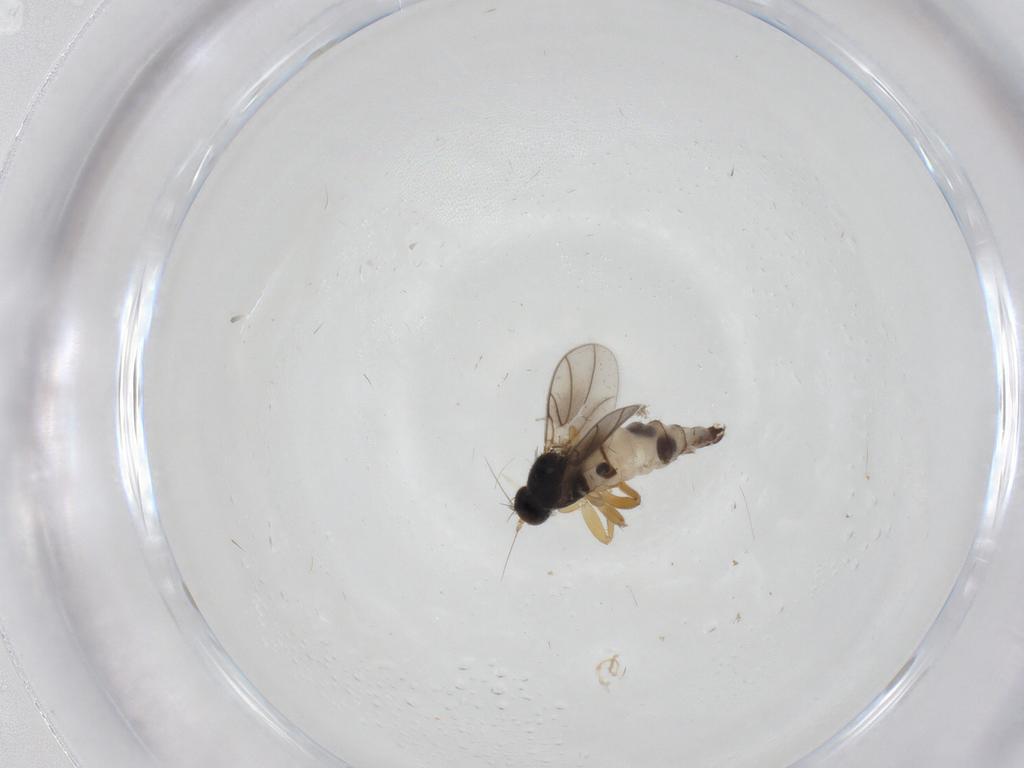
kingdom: Animalia
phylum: Arthropoda
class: Insecta
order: Diptera
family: Hybotidae
